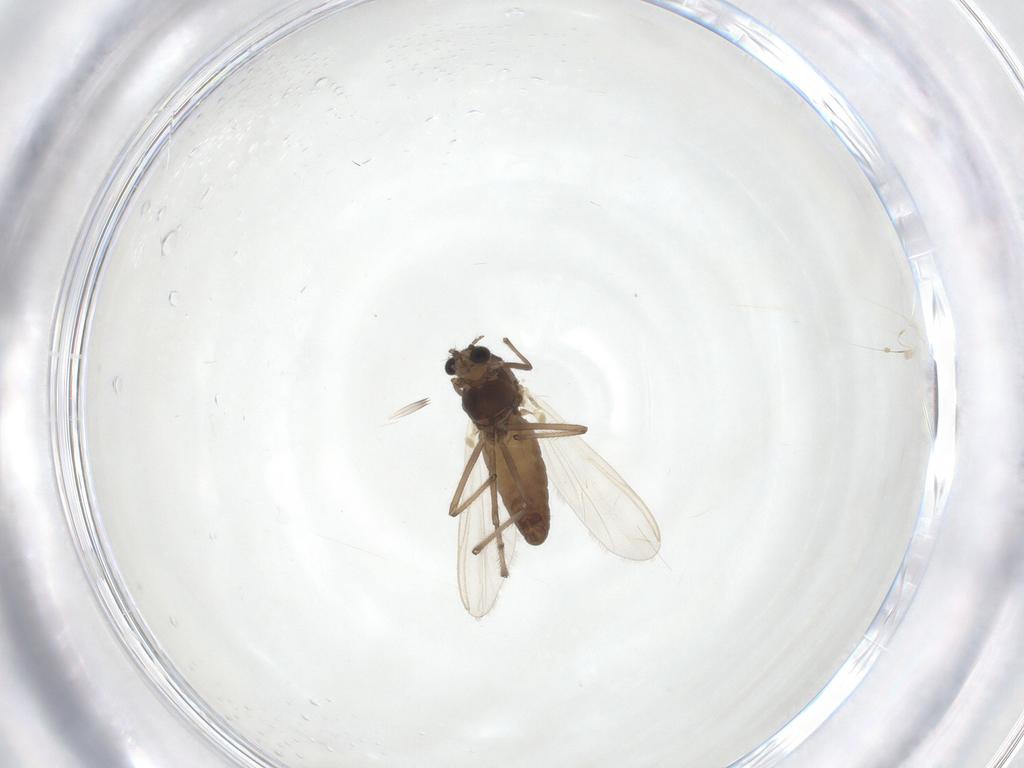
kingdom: Animalia
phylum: Arthropoda
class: Insecta
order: Diptera
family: Chironomidae
